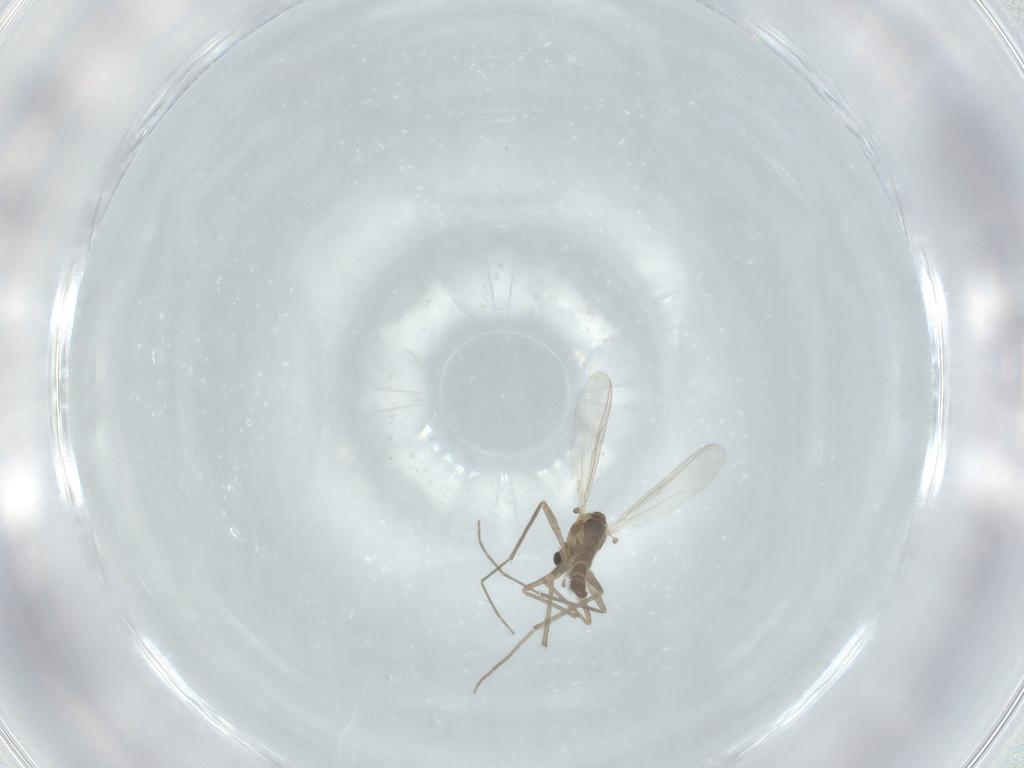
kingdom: Animalia
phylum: Arthropoda
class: Insecta
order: Diptera
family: Chironomidae
